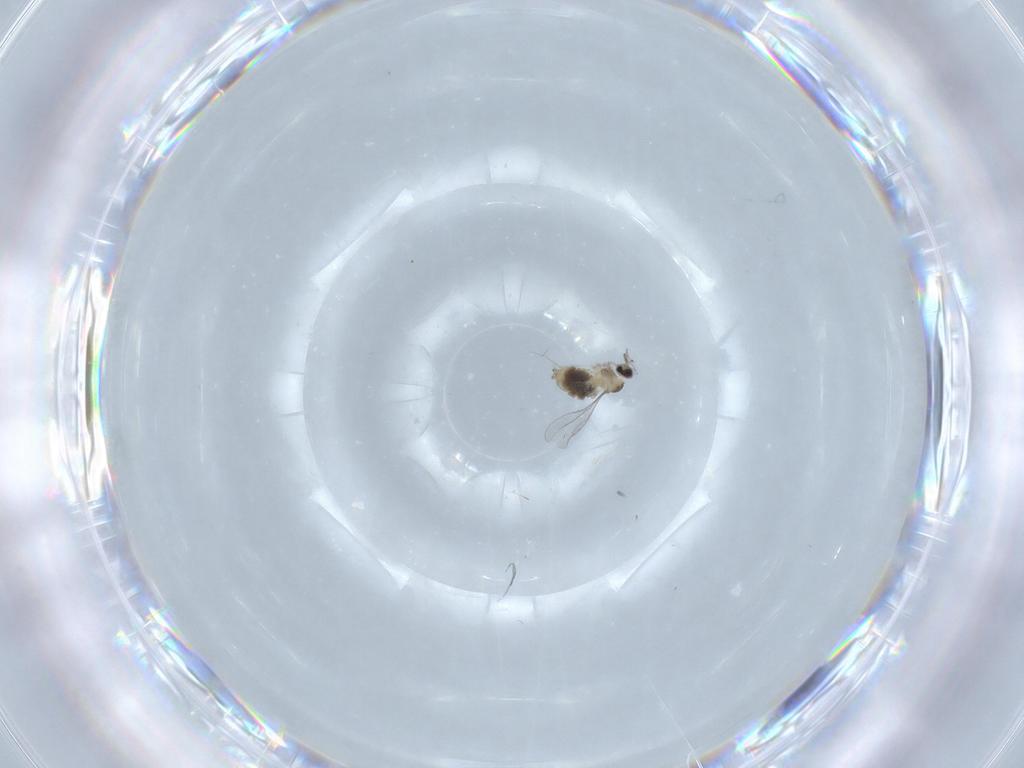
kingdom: Animalia
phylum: Arthropoda
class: Insecta
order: Diptera
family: Cecidomyiidae
